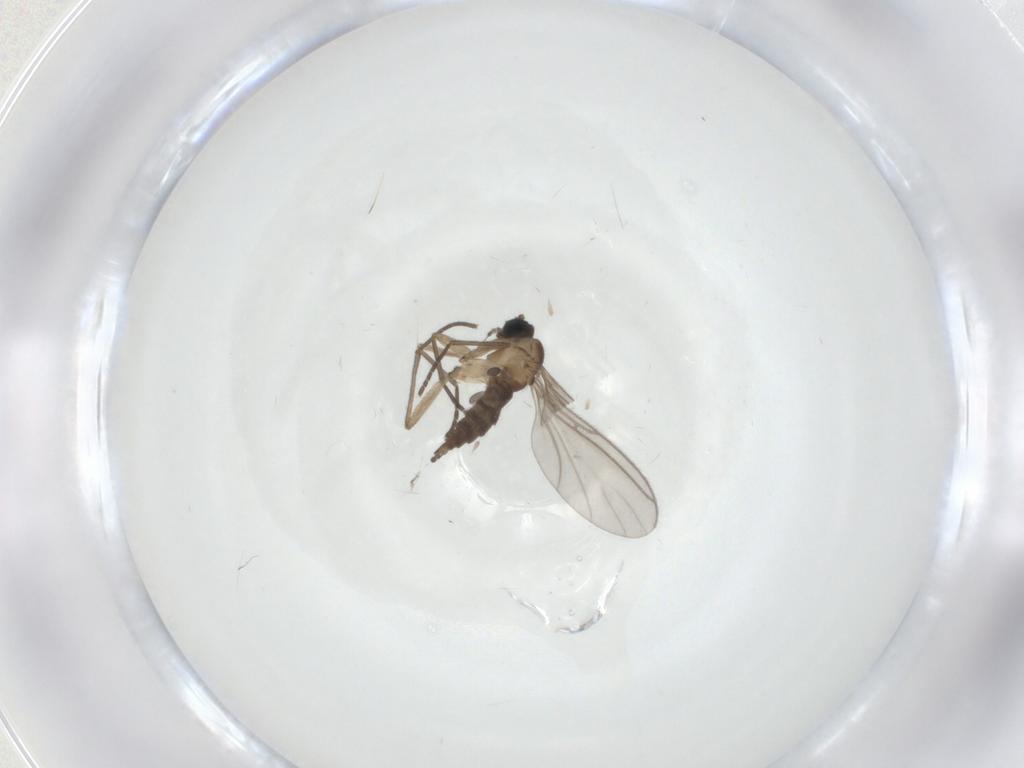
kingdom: Animalia
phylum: Arthropoda
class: Insecta
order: Diptera
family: Sciaridae
